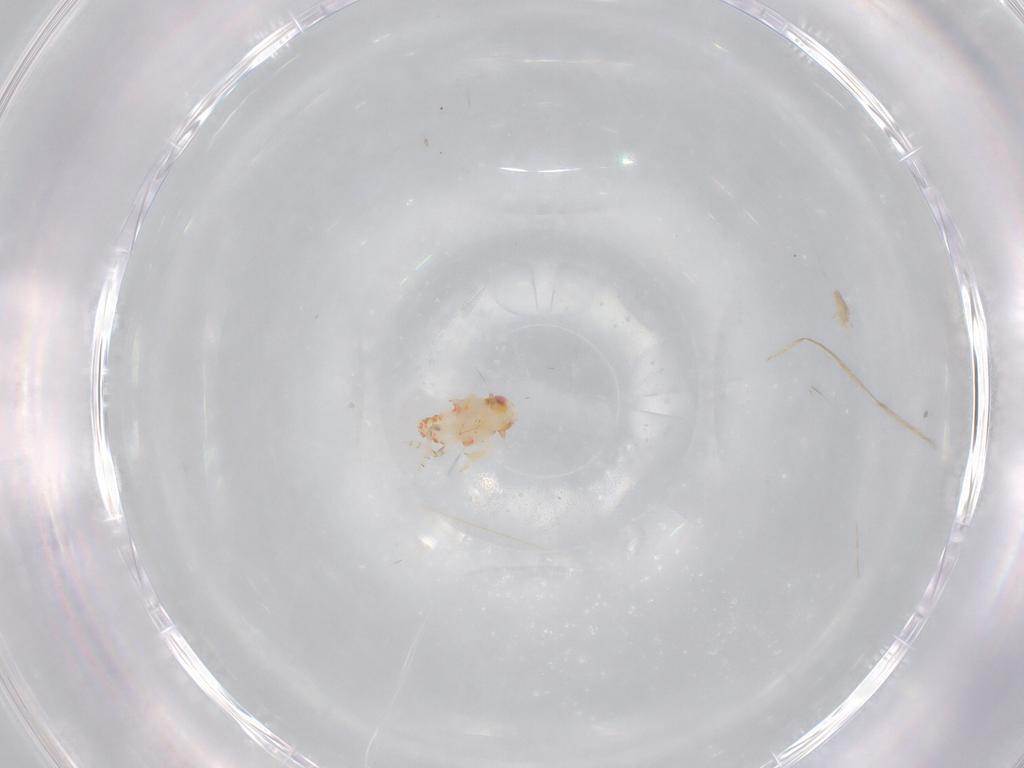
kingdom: Animalia
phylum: Arthropoda
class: Insecta
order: Hemiptera
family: Nogodinidae
